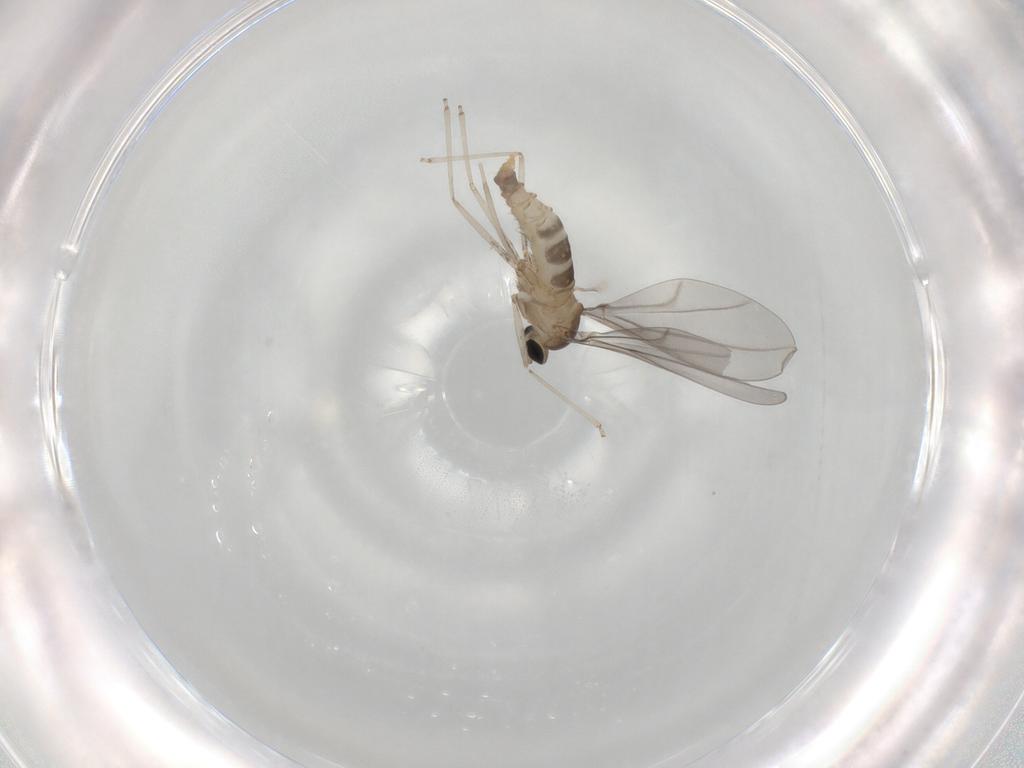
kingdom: Animalia
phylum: Arthropoda
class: Insecta
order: Diptera
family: Cecidomyiidae
